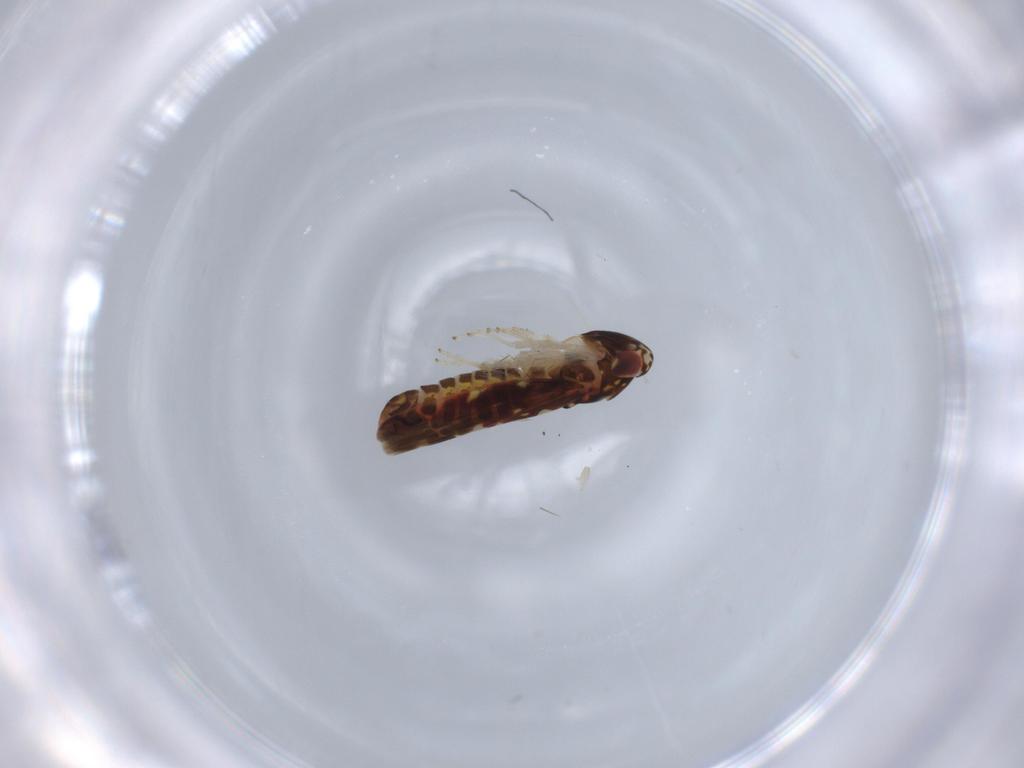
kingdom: Animalia
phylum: Arthropoda
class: Insecta
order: Hemiptera
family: Cicadellidae
